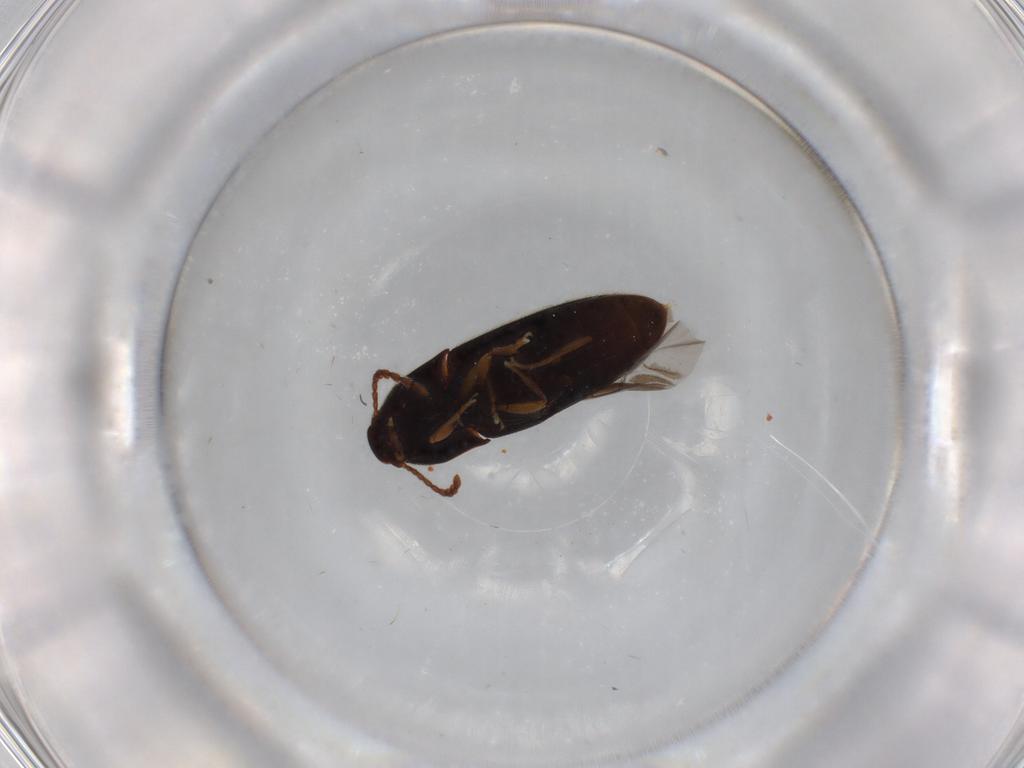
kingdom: Animalia
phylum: Arthropoda
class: Insecta
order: Coleoptera
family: Elateridae
